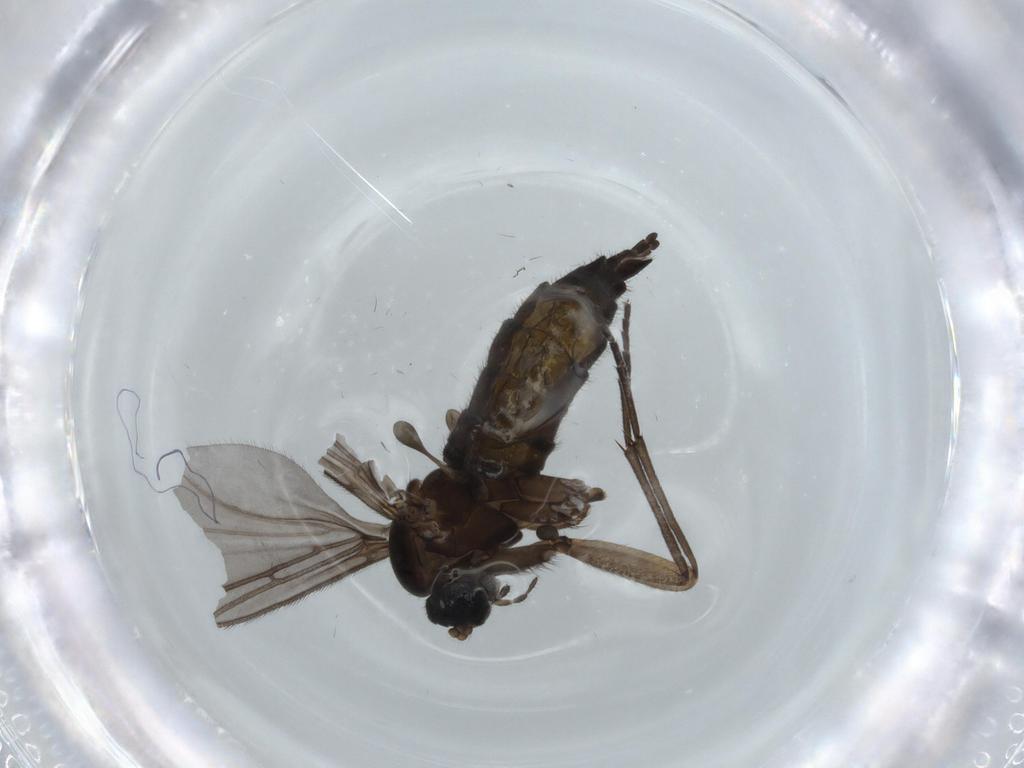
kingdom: Animalia
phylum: Arthropoda
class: Insecta
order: Diptera
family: Sciaridae
